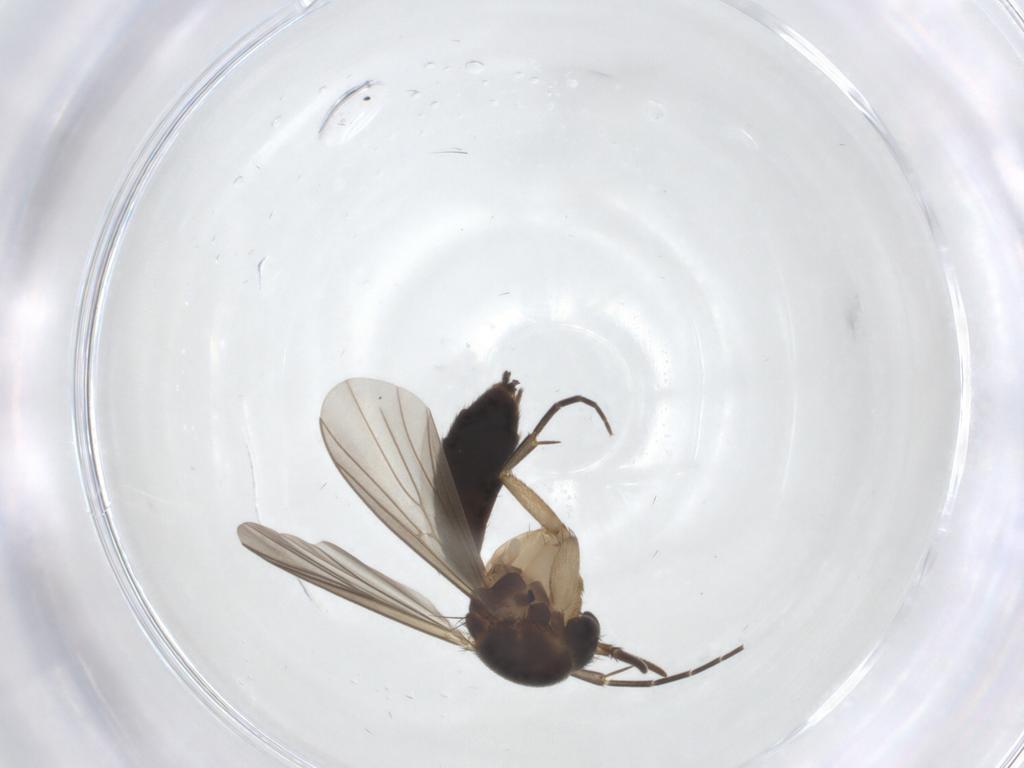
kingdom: Animalia
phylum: Arthropoda
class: Insecta
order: Diptera
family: Mycetophilidae
